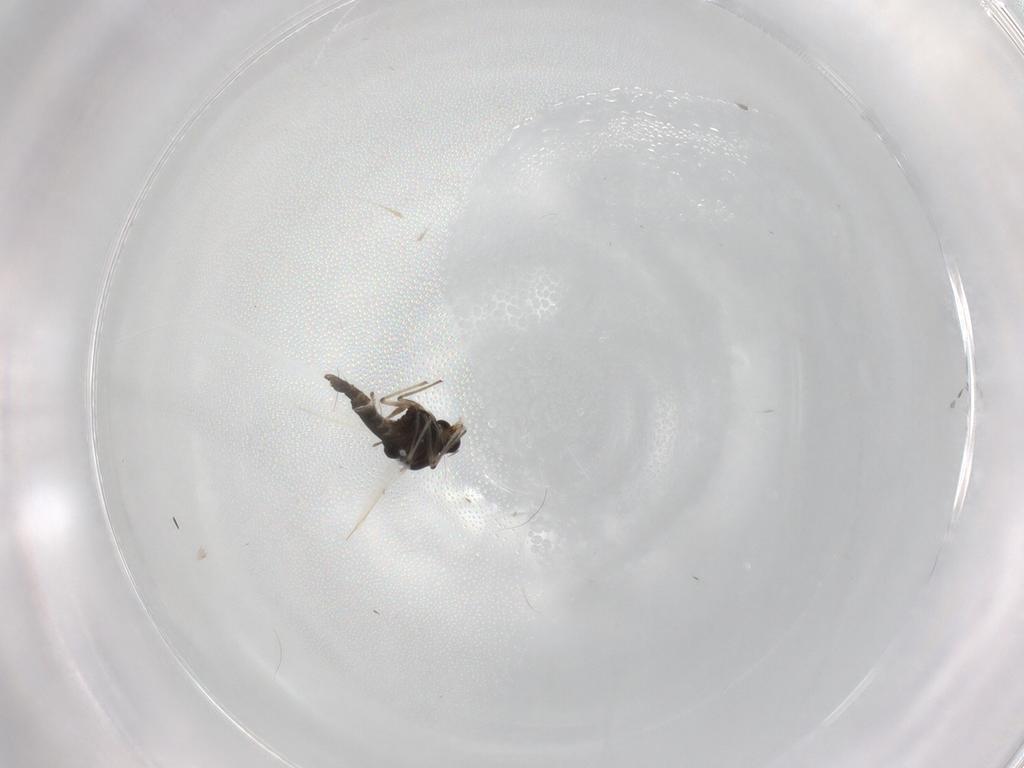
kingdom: Animalia
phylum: Arthropoda
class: Insecta
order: Diptera
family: Chironomidae
